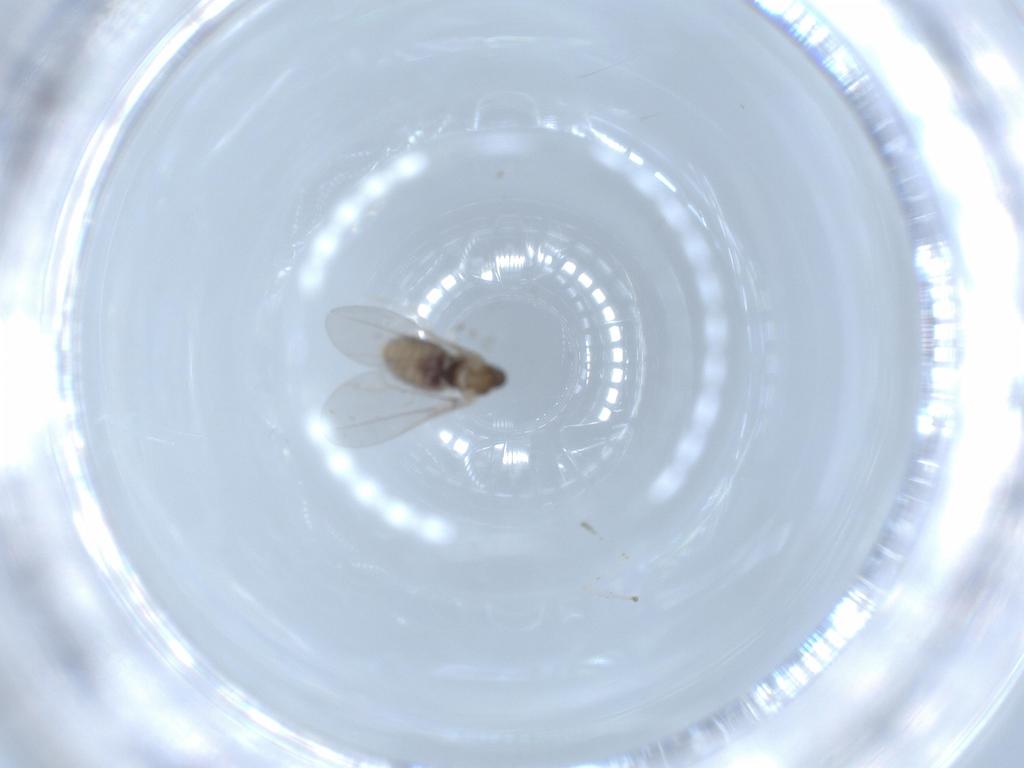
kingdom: Animalia
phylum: Arthropoda
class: Insecta
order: Diptera
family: Cecidomyiidae
